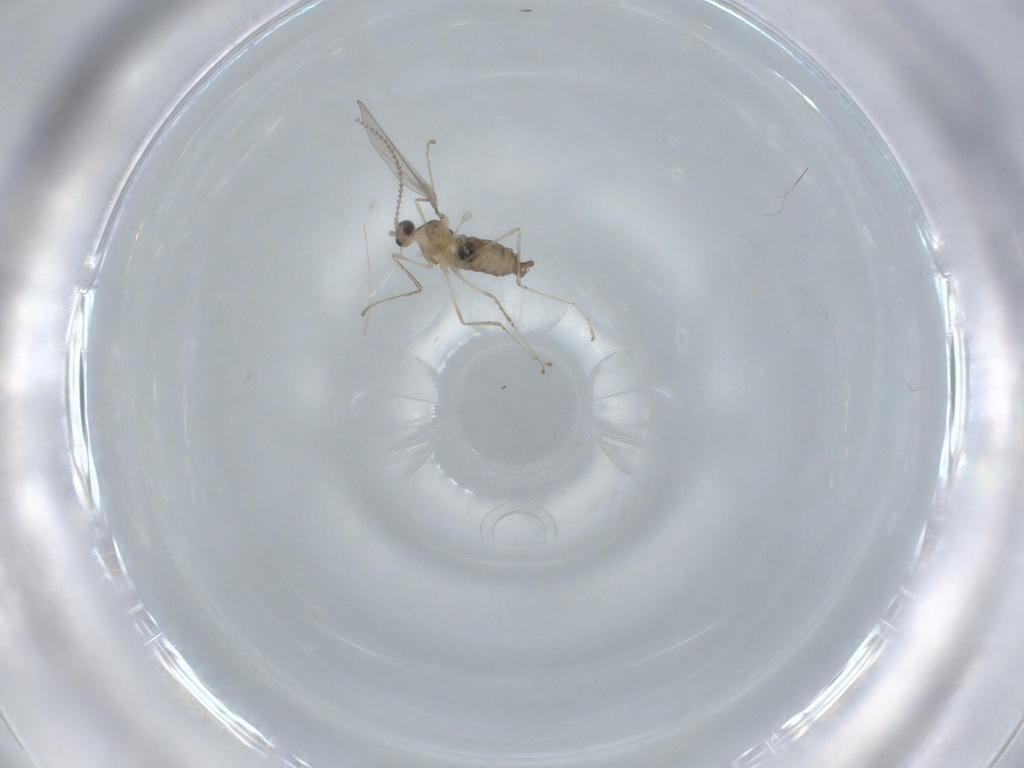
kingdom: Animalia
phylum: Arthropoda
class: Insecta
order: Diptera
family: Cecidomyiidae
